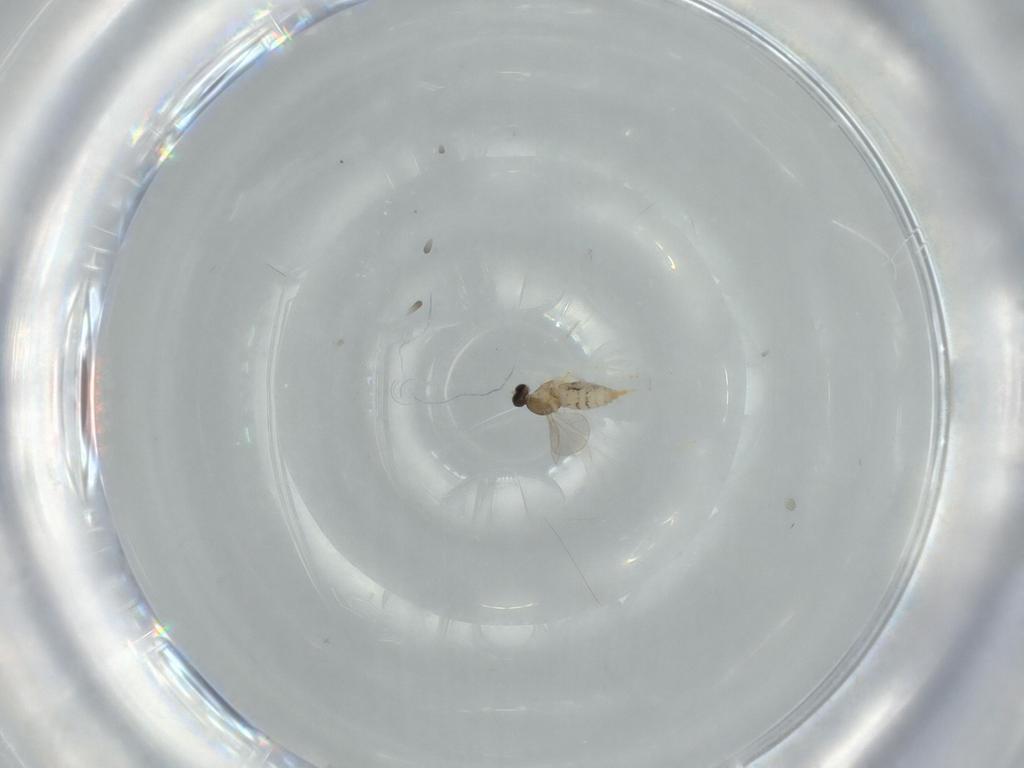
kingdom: Animalia
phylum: Arthropoda
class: Insecta
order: Diptera
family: Cecidomyiidae
